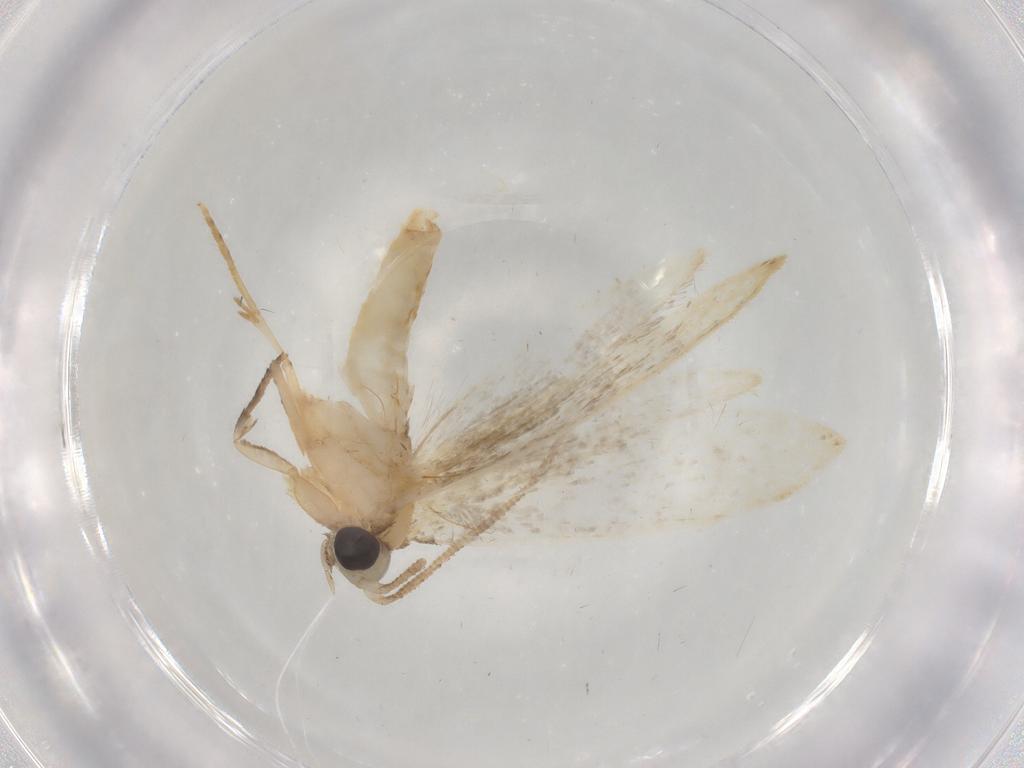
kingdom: Animalia
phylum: Arthropoda
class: Insecta
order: Lepidoptera
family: Tineidae
